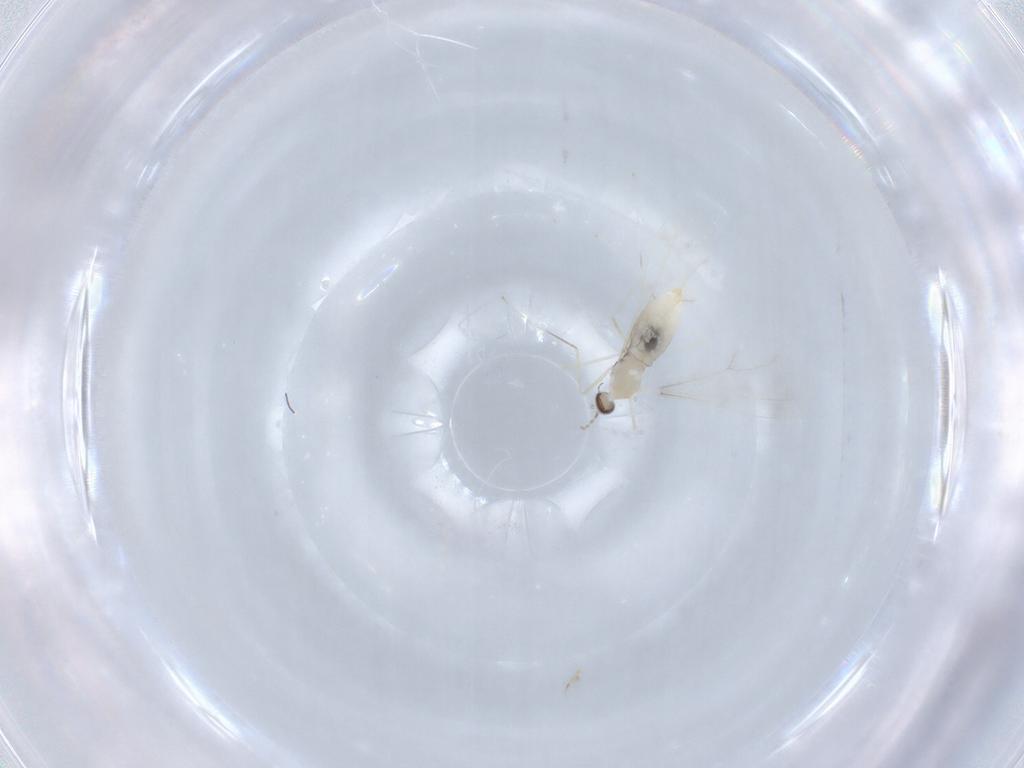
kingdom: Animalia
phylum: Arthropoda
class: Insecta
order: Diptera
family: Cecidomyiidae
